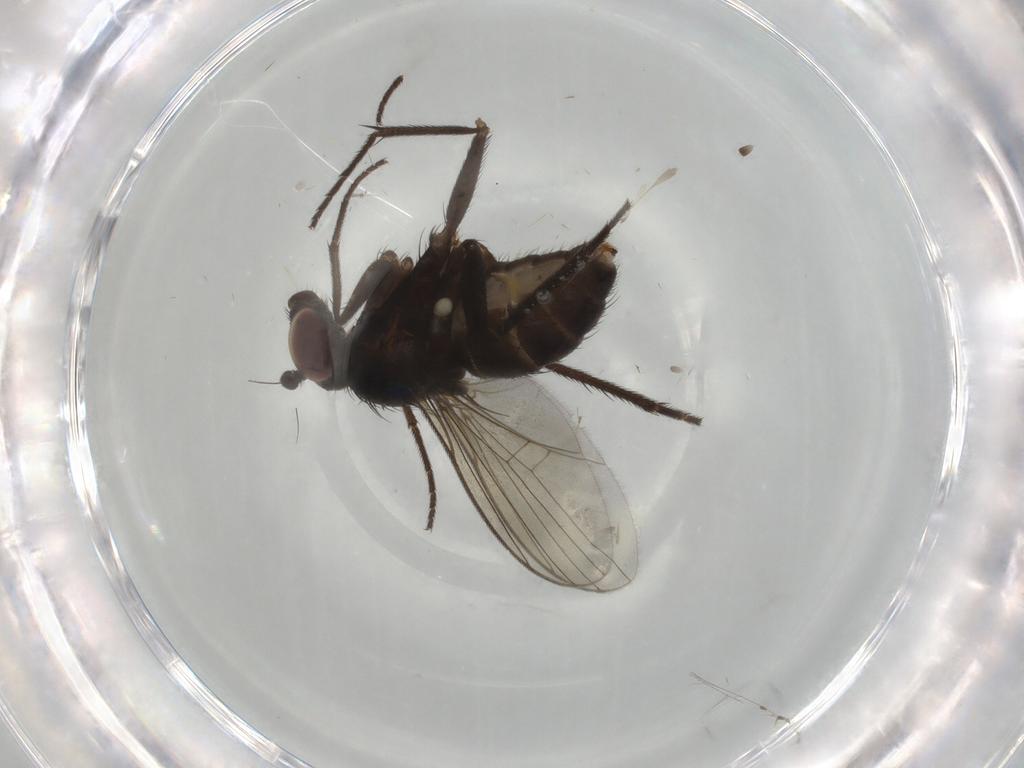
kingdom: Animalia
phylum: Arthropoda
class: Insecta
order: Diptera
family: Dolichopodidae
